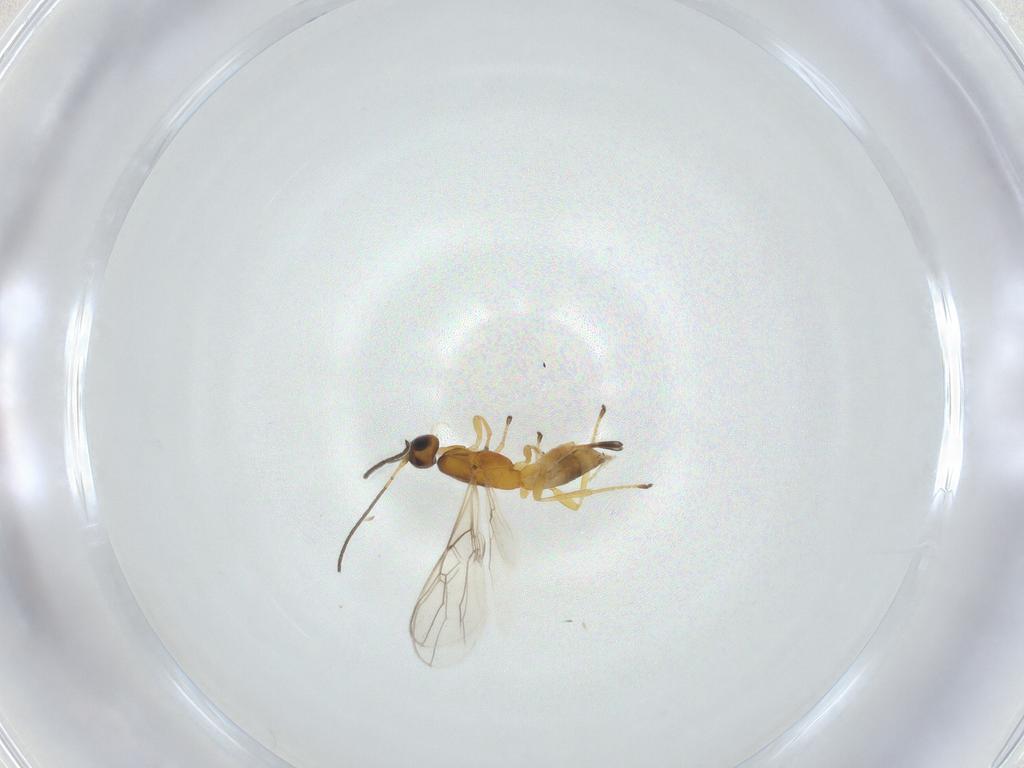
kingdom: Animalia
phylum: Arthropoda
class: Insecta
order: Hymenoptera
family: Braconidae
